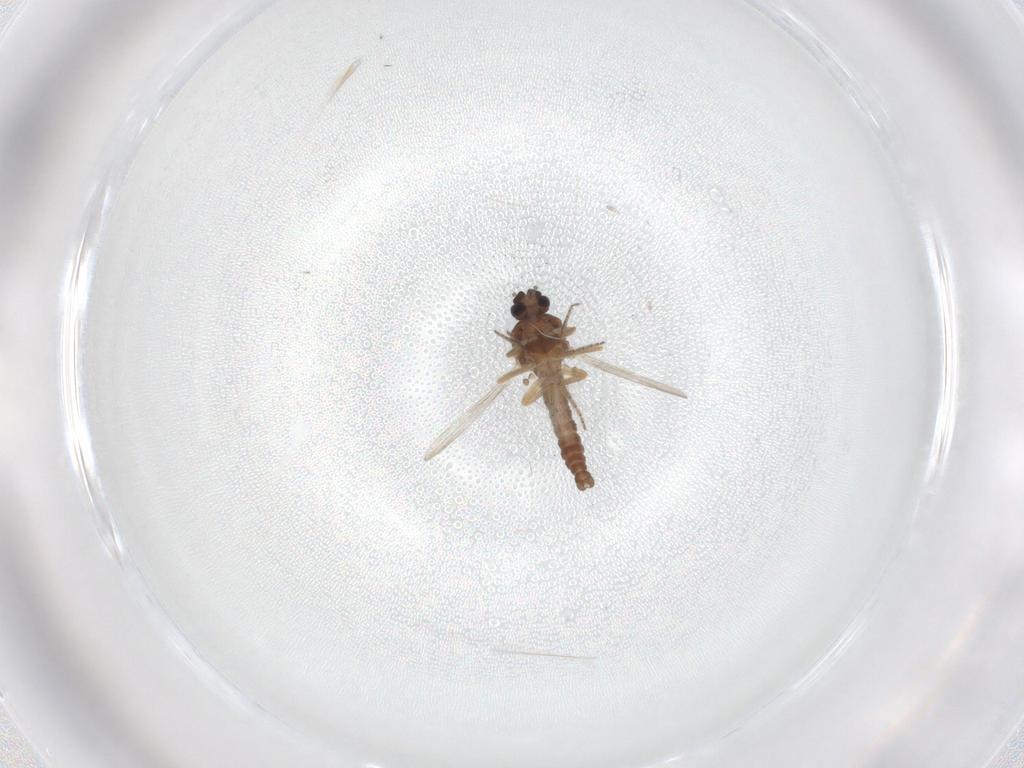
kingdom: Animalia
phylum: Arthropoda
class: Insecta
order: Diptera
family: Ceratopogonidae
